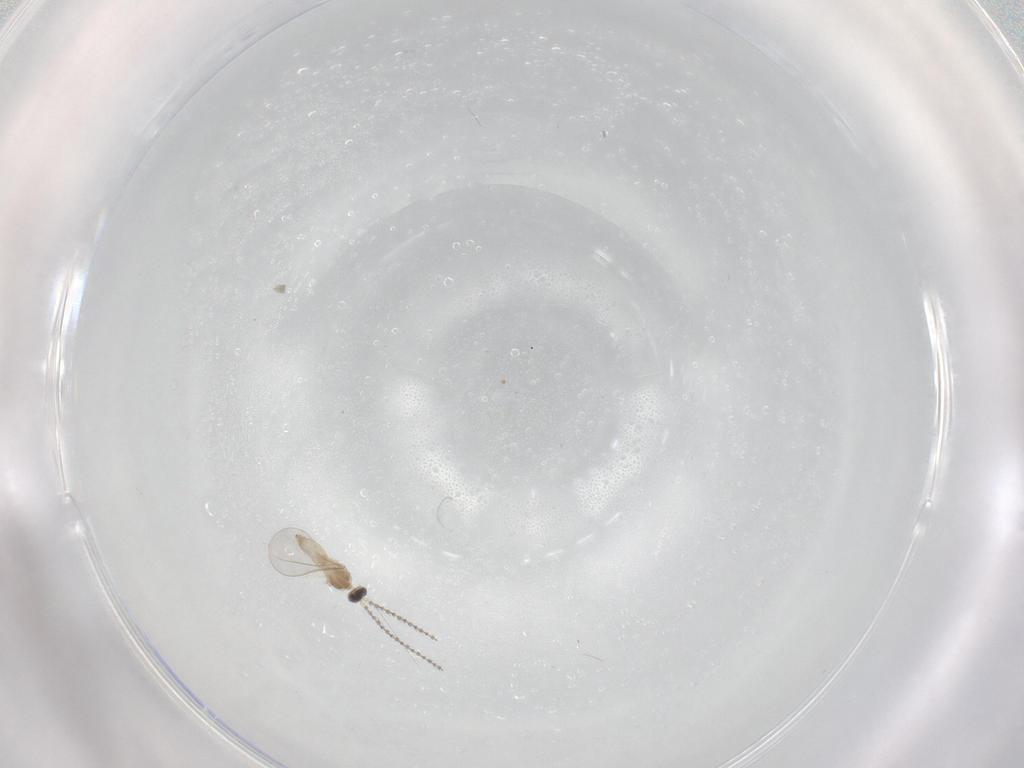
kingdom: Animalia
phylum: Arthropoda
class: Insecta
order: Diptera
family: Cecidomyiidae
